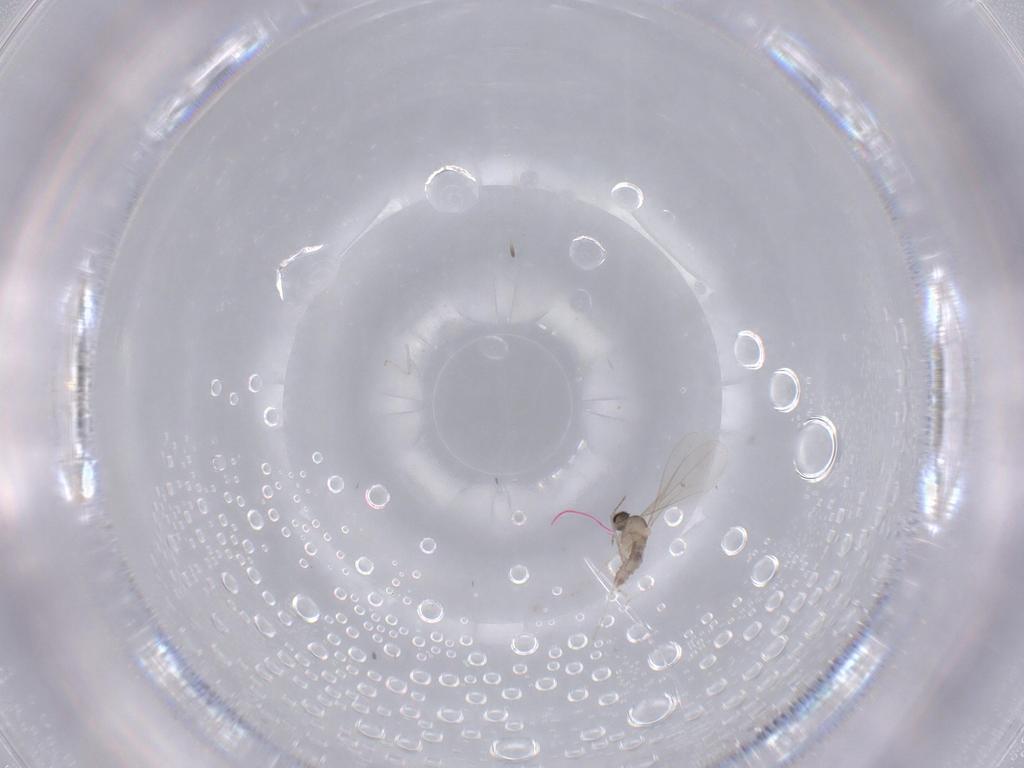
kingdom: Animalia
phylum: Arthropoda
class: Insecta
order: Diptera
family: Cecidomyiidae
